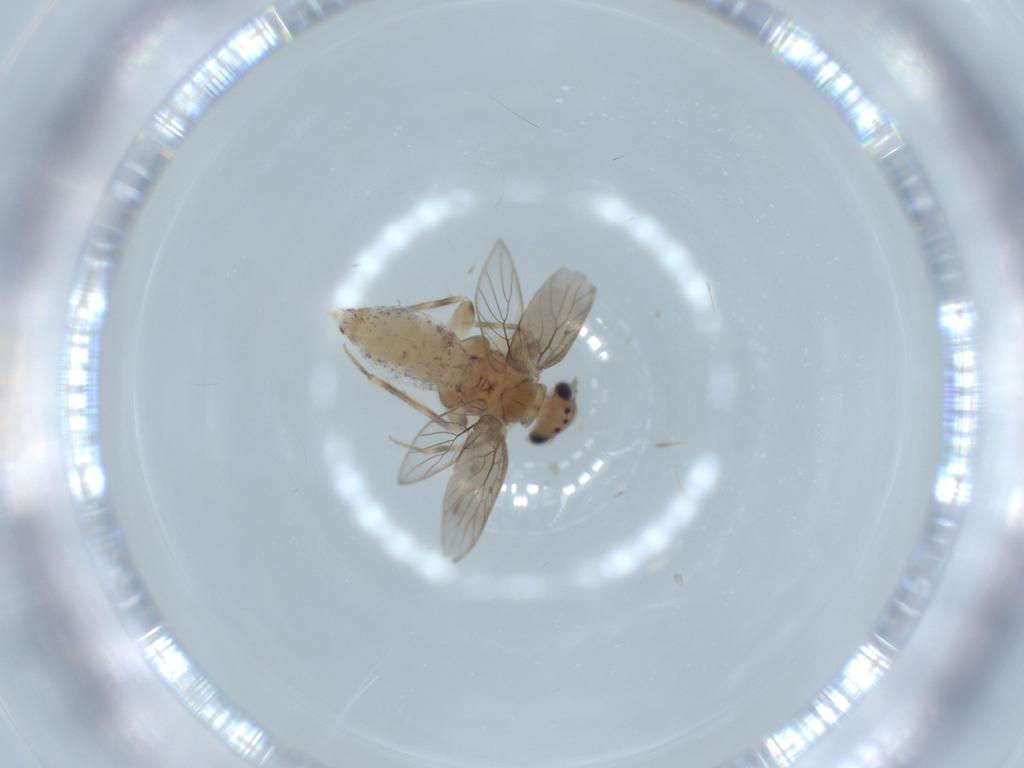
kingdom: Animalia
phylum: Arthropoda
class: Insecta
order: Psocodea
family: Lepidopsocidae
